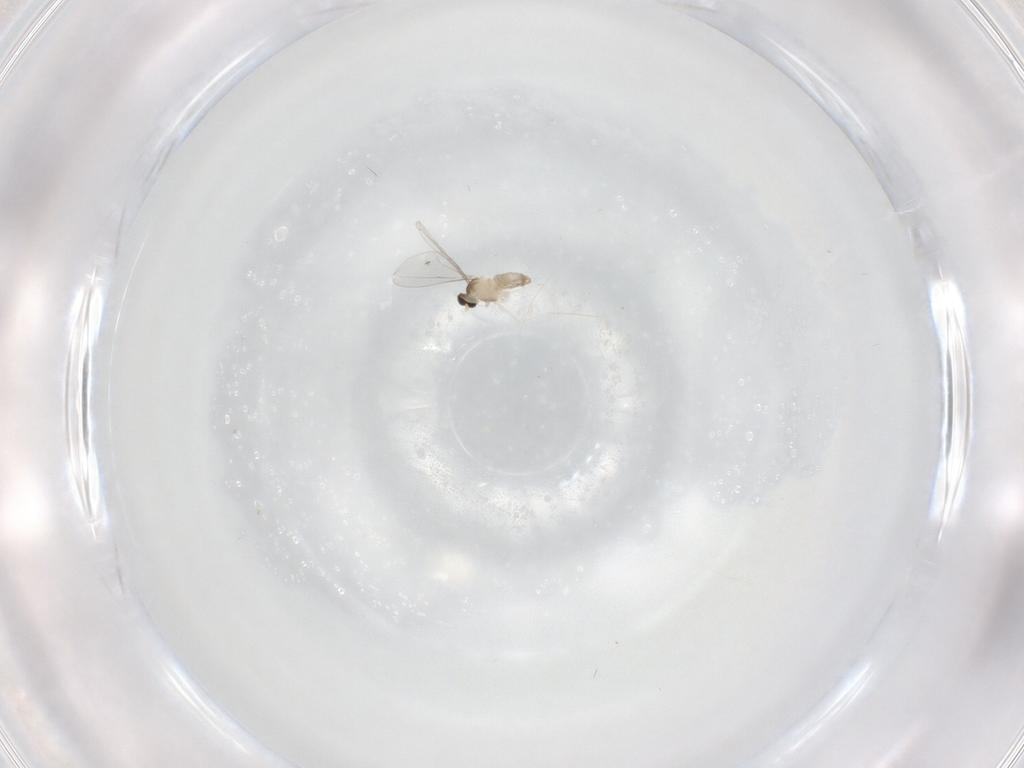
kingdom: Animalia
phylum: Arthropoda
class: Insecta
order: Diptera
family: Cecidomyiidae
